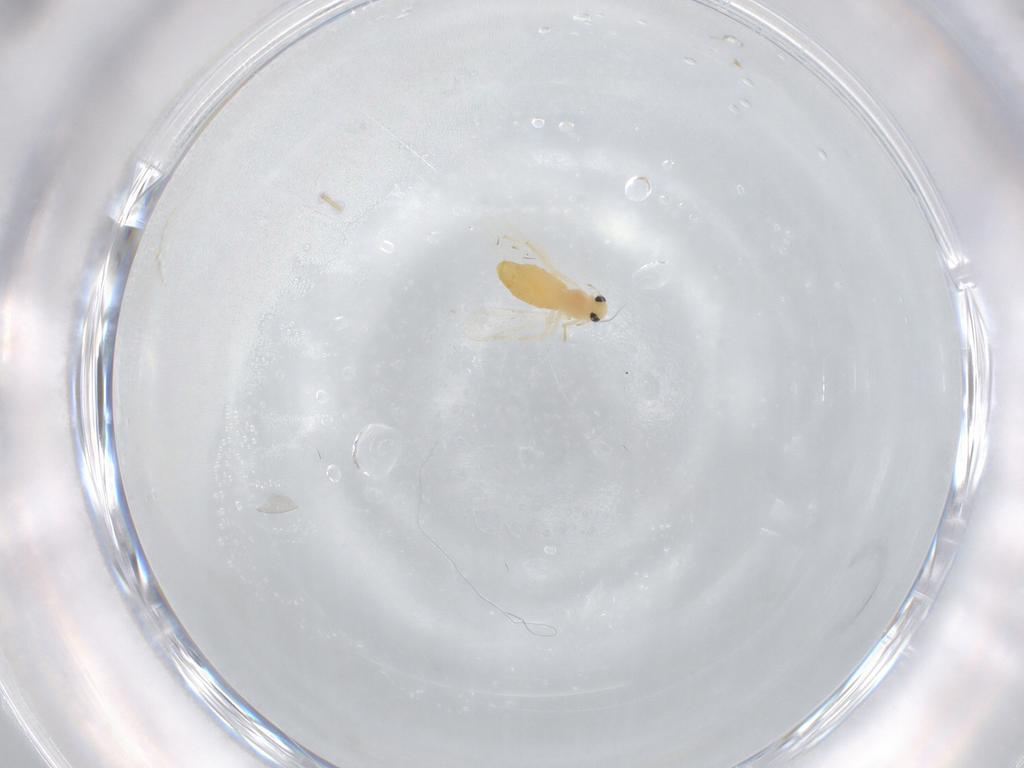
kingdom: Animalia
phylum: Arthropoda
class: Insecta
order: Diptera
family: Chironomidae
